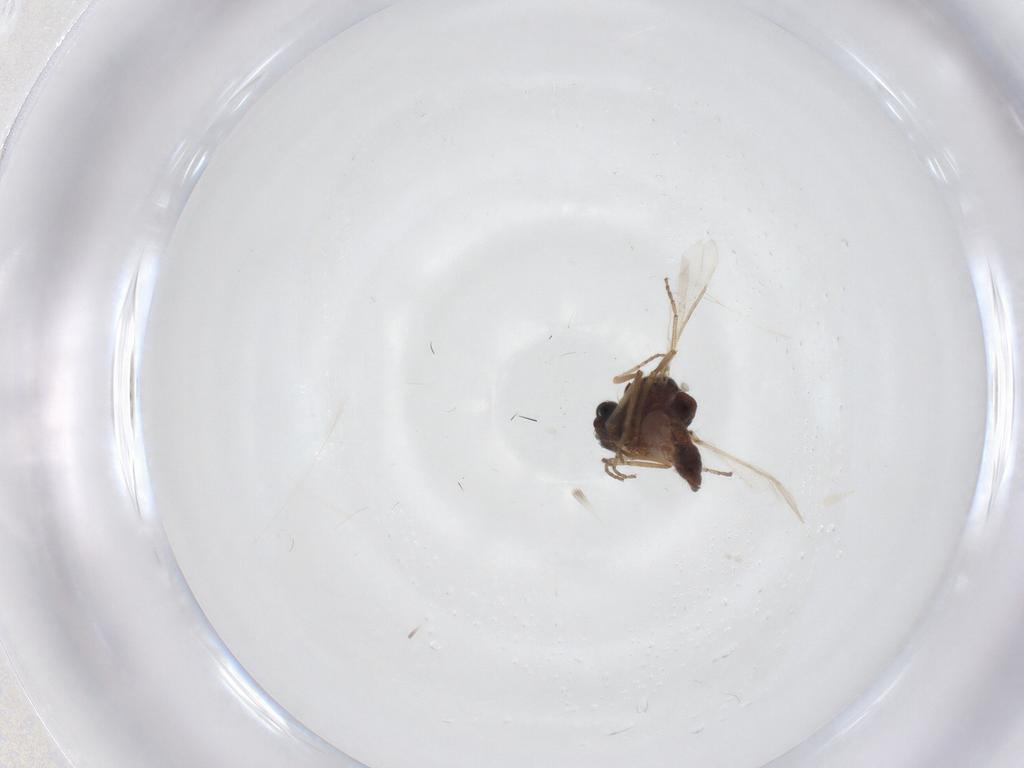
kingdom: Animalia
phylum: Arthropoda
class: Insecta
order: Diptera
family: Ceratopogonidae
